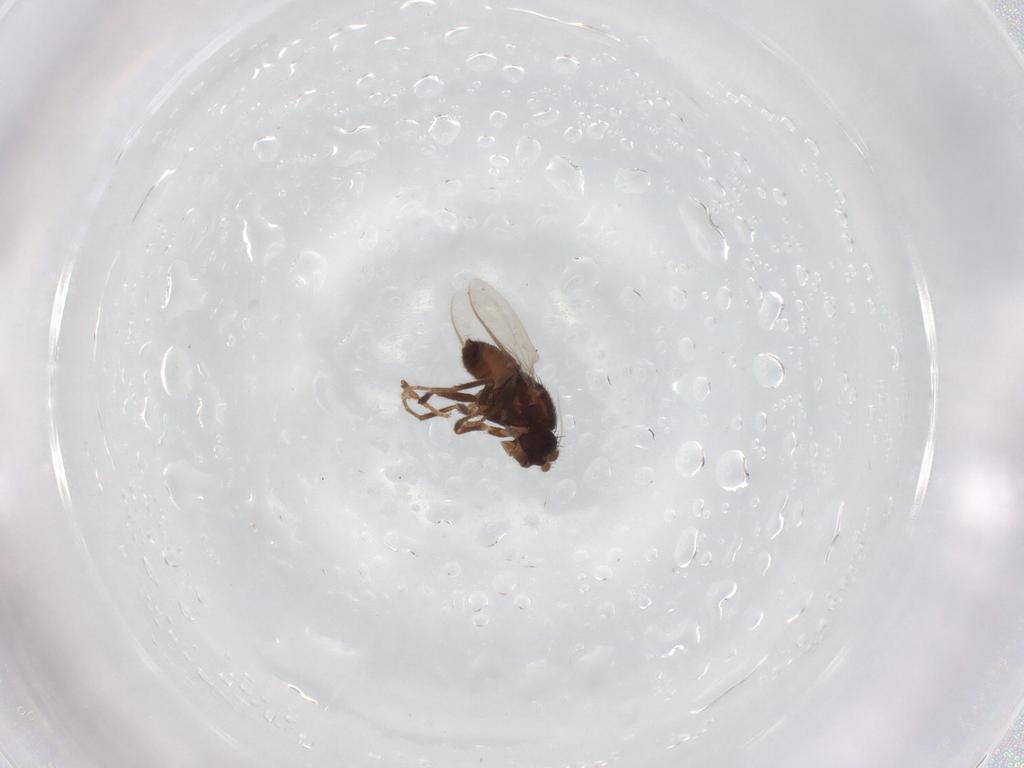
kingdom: Animalia
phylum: Arthropoda
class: Insecta
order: Diptera
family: Sphaeroceridae
